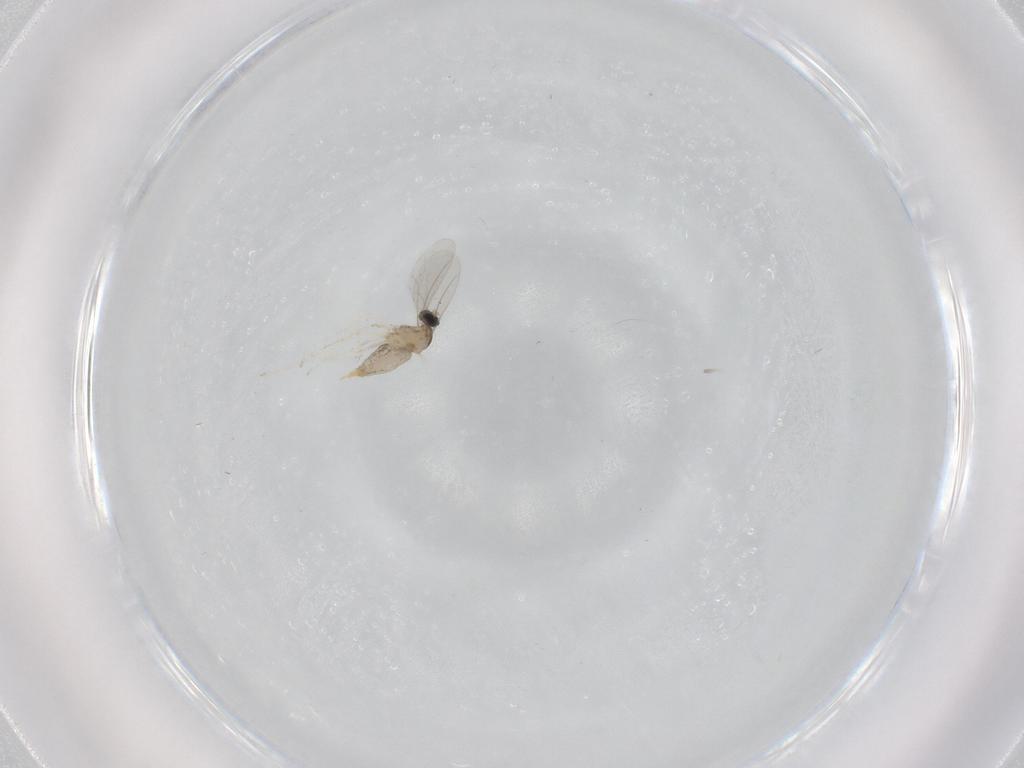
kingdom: Animalia
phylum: Arthropoda
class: Insecta
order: Diptera
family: Cecidomyiidae
